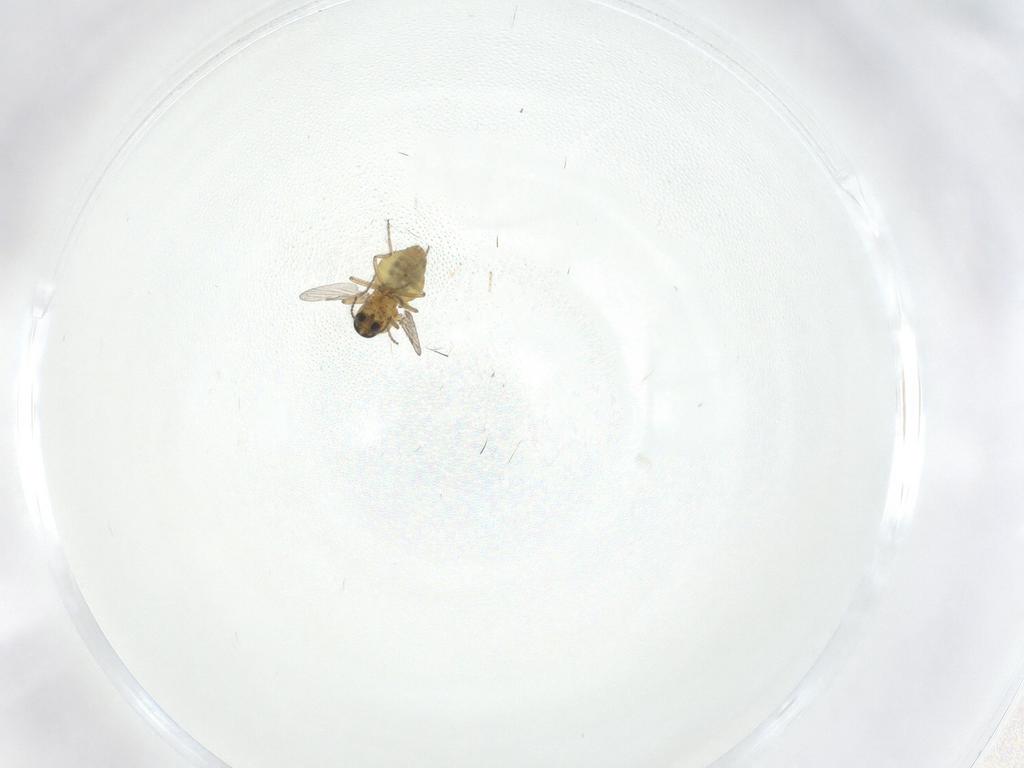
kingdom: Animalia
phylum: Arthropoda
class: Insecta
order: Diptera
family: Ceratopogonidae
